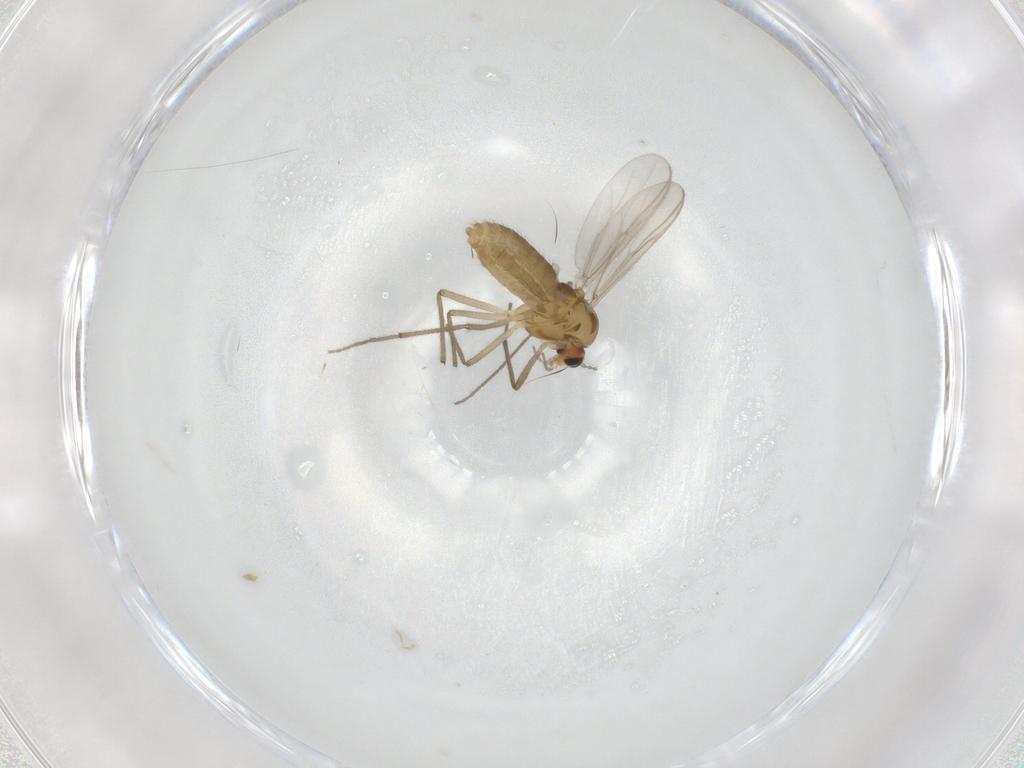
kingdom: Animalia
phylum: Arthropoda
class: Insecta
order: Diptera
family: Chironomidae
